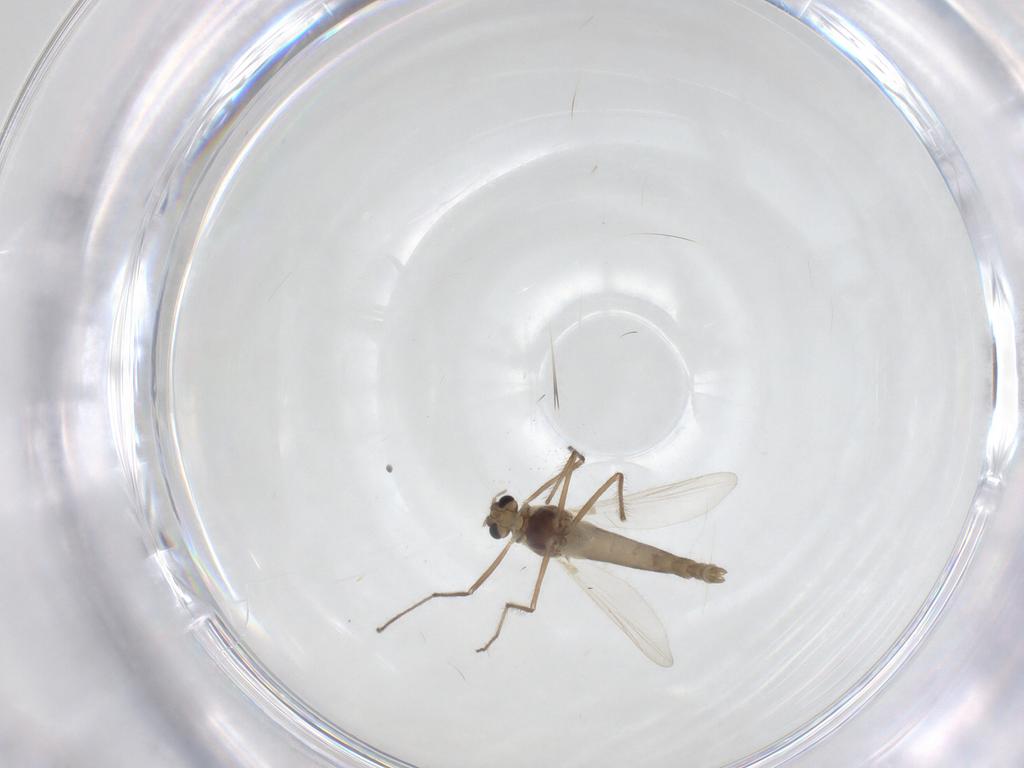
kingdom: Animalia
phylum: Arthropoda
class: Insecta
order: Diptera
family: Chironomidae
